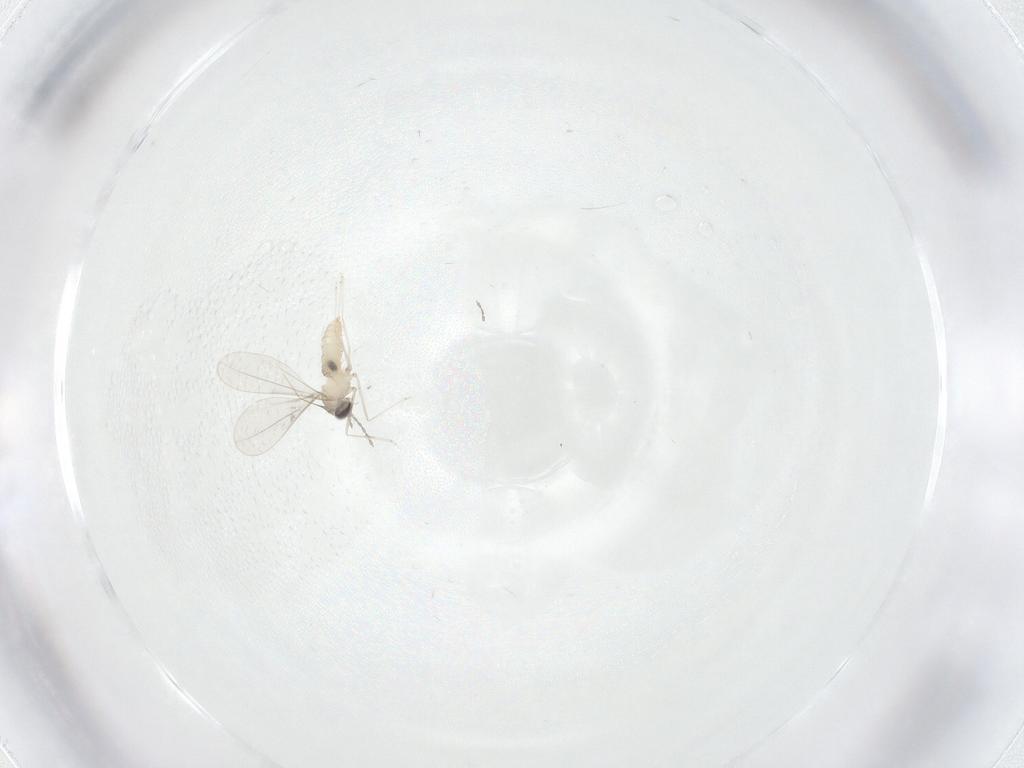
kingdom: Animalia
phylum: Arthropoda
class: Insecta
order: Diptera
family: Cecidomyiidae
